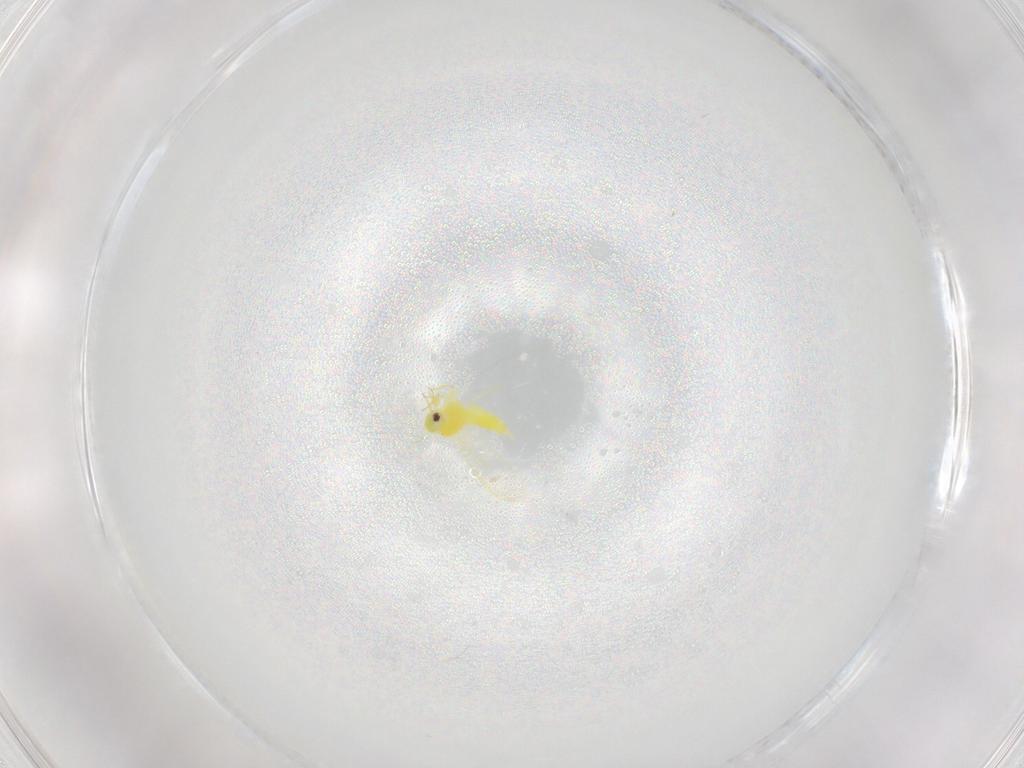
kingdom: Animalia
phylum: Arthropoda
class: Insecta
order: Hemiptera
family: Aleyrodidae
